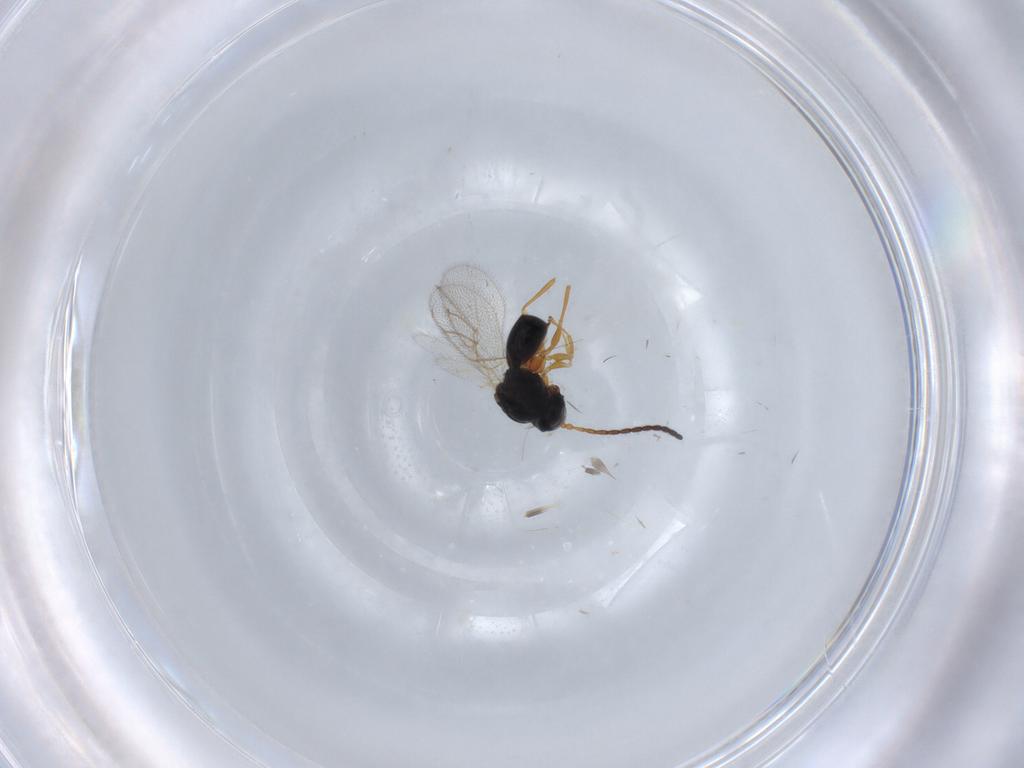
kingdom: Animalia
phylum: Arthropoda
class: Insecta
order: Hymenoptera
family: Figitidae
